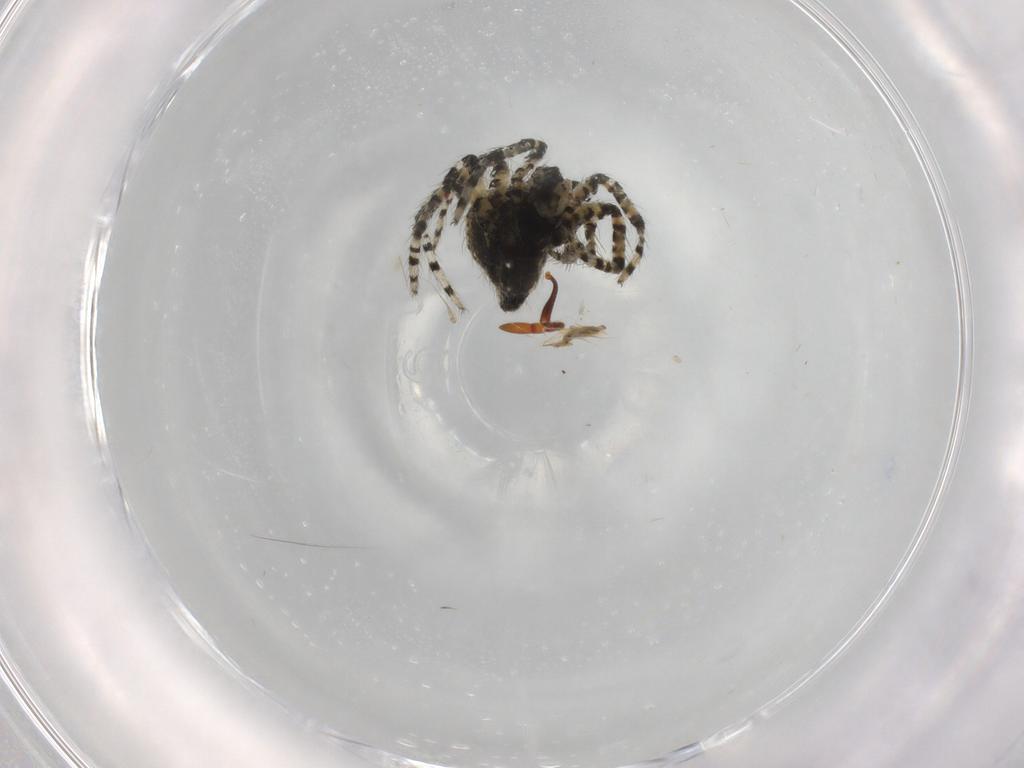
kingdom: Animalia
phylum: Arthropoda
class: Arachnida
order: Araneae
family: Theridiidae
